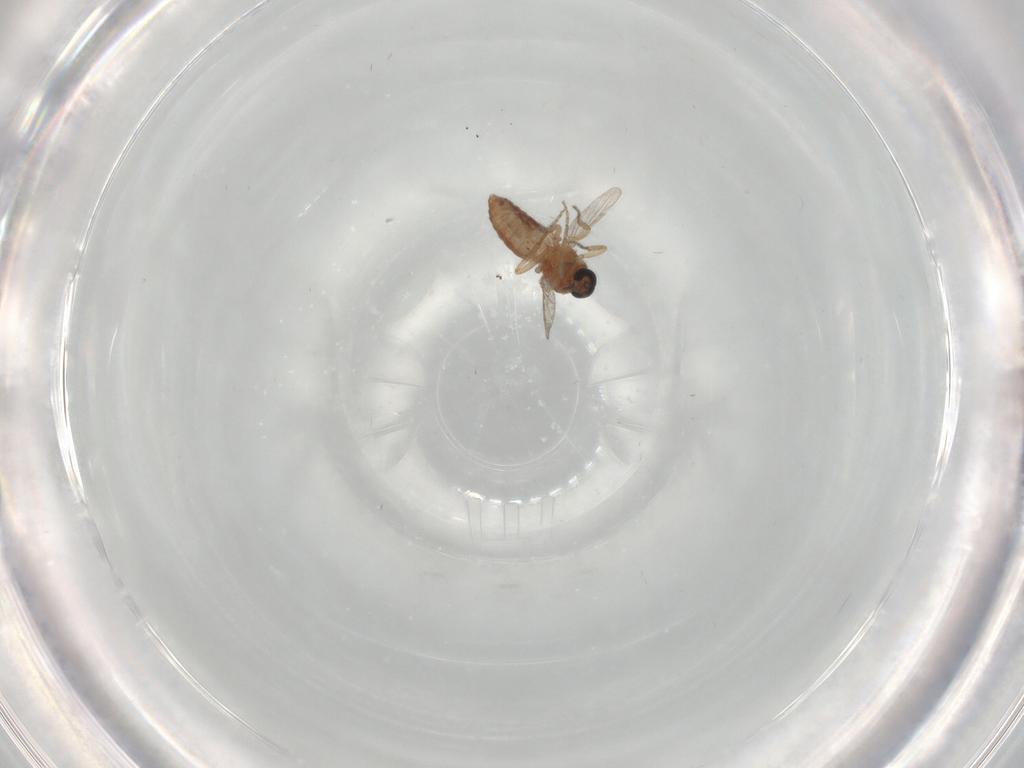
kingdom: Animalia
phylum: Arthropoda
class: Insecta
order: Diptera
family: Ceratopogonidae
